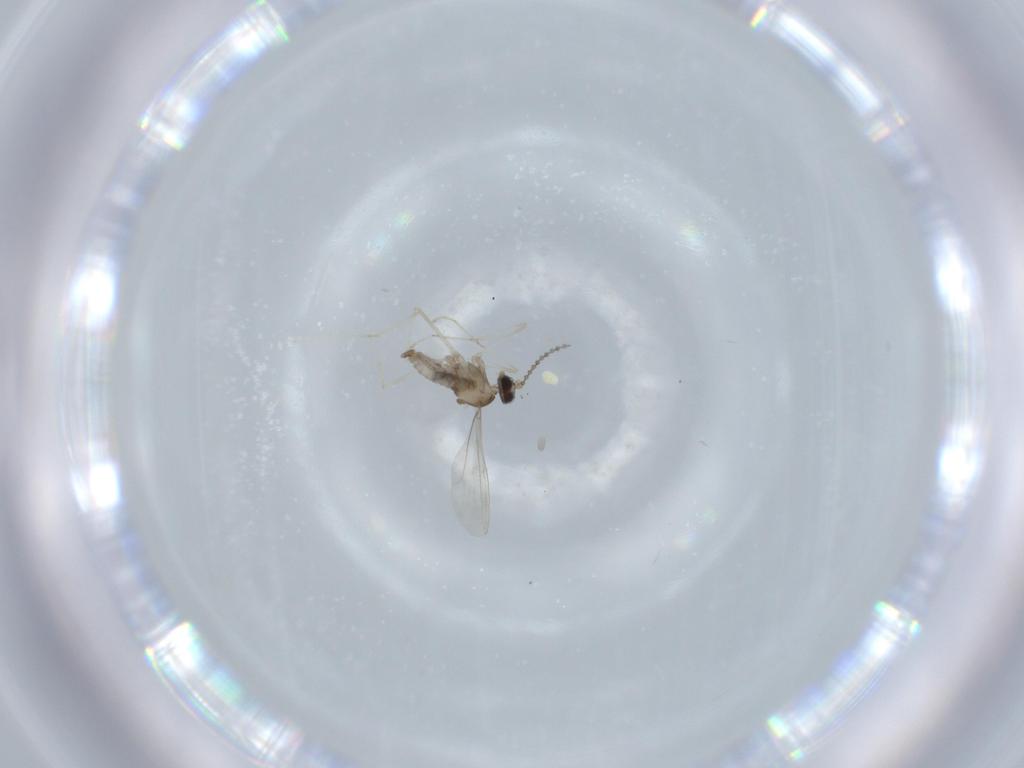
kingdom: Animalia
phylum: Arthropoda
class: Insecta
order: Diptera
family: Cecidomyiidae
